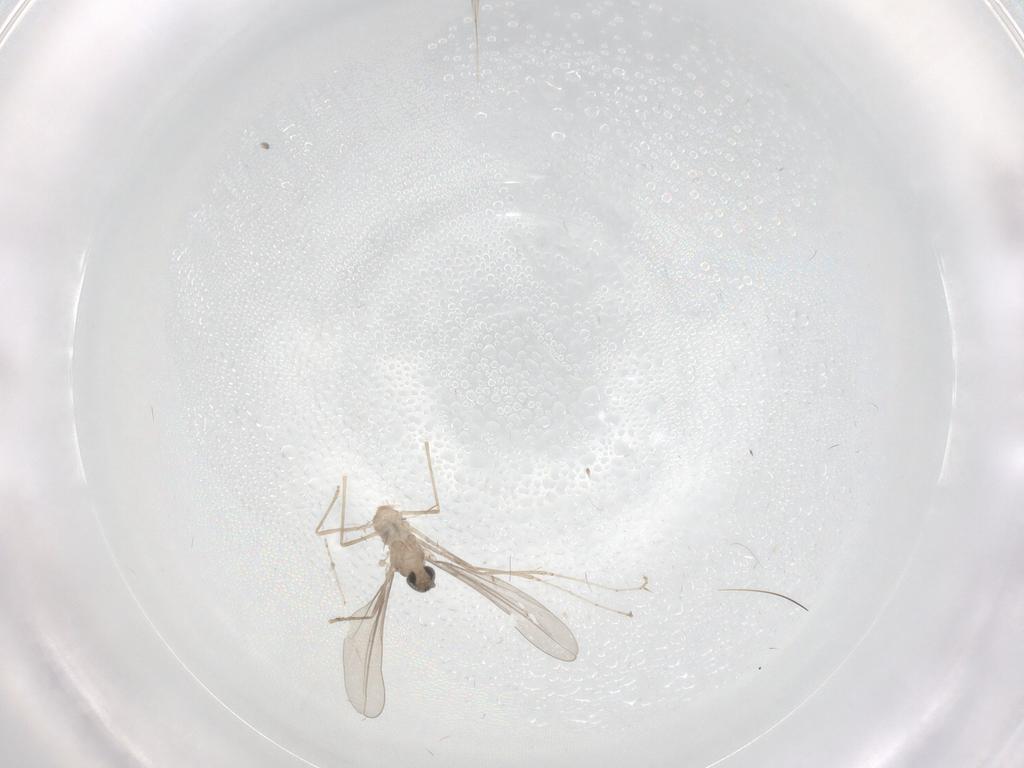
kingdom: Animalia
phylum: Arthropoda
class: Insecta
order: Diptera
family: Cecidomyiidae
